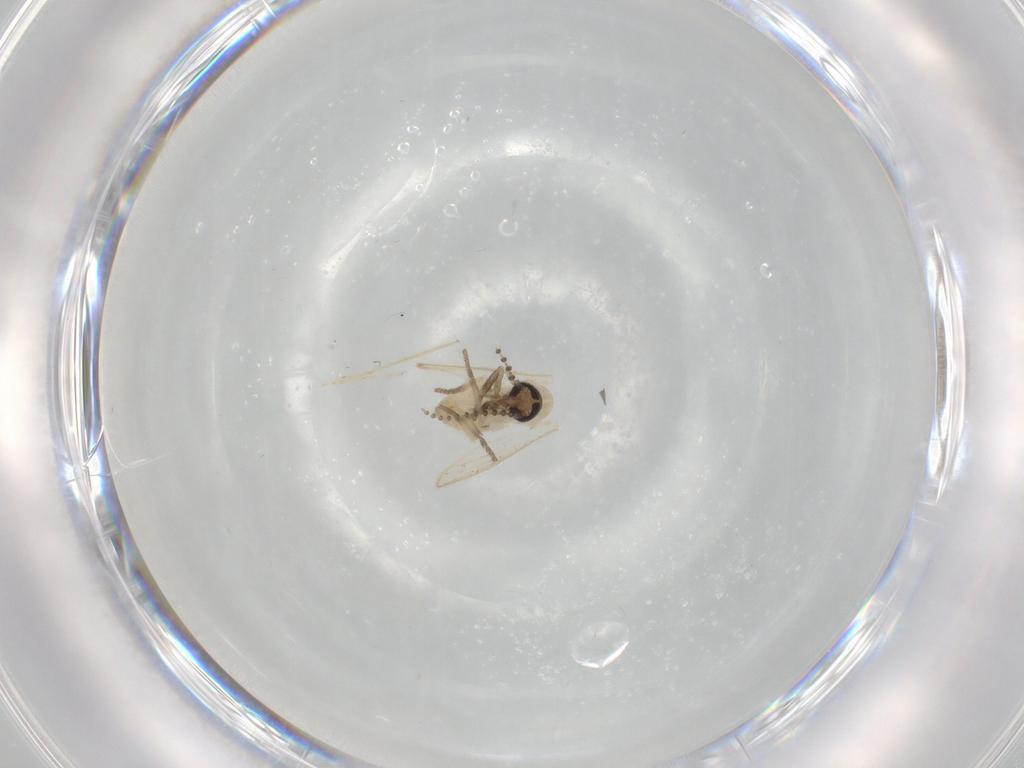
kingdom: Animalia
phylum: Arthropoda
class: Insecta
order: Diptera
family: Psychodidae
